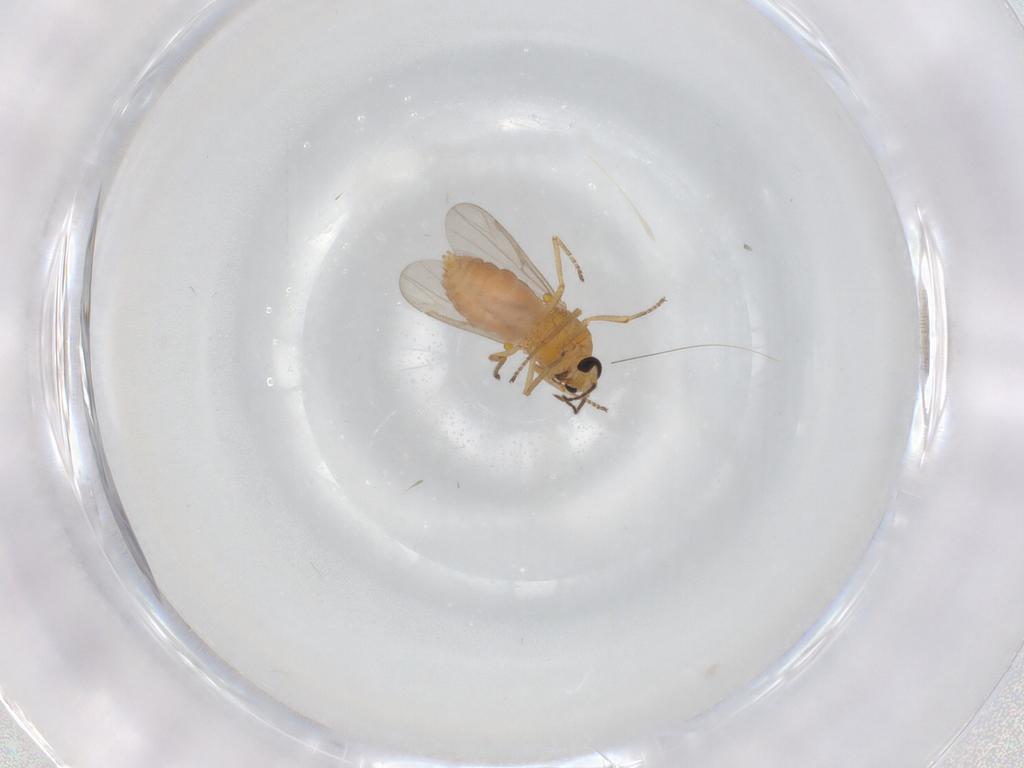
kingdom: Animalia
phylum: Arthropoda
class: Insecta
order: Diptera
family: Ceratopogonidae
